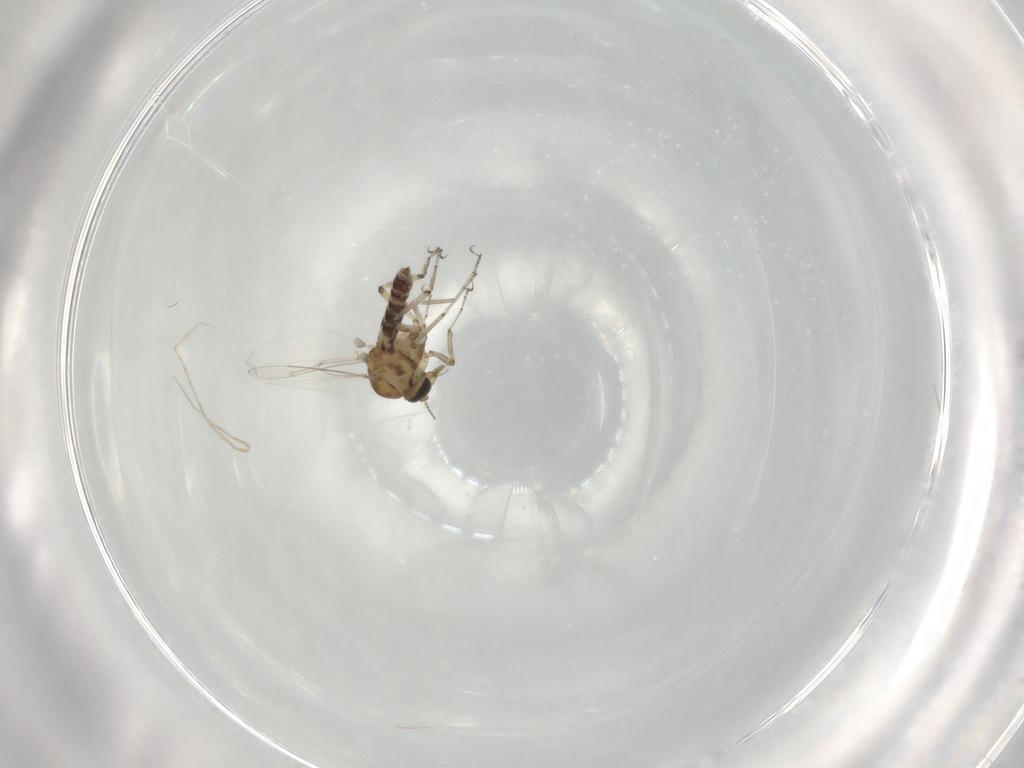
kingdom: Animalia
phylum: Arthropoda
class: Insecta
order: Diptera
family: Ceratopogonidae
